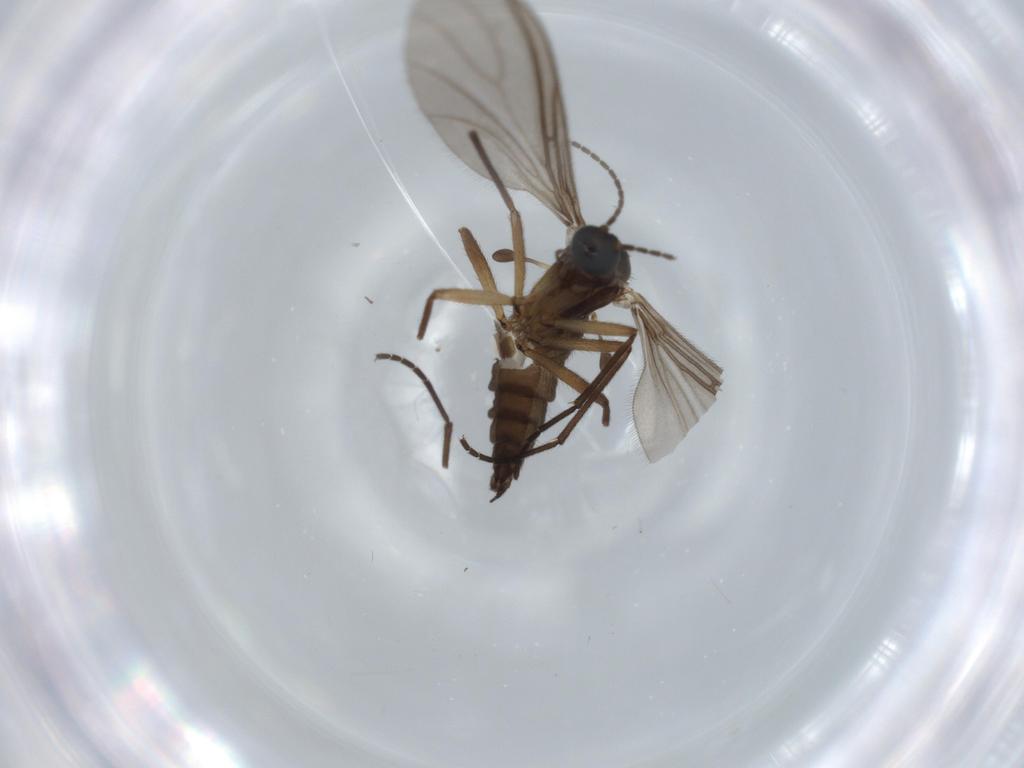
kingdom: Animalia
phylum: Arthropoda
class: Insecta
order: Diptera
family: Sciaridae
